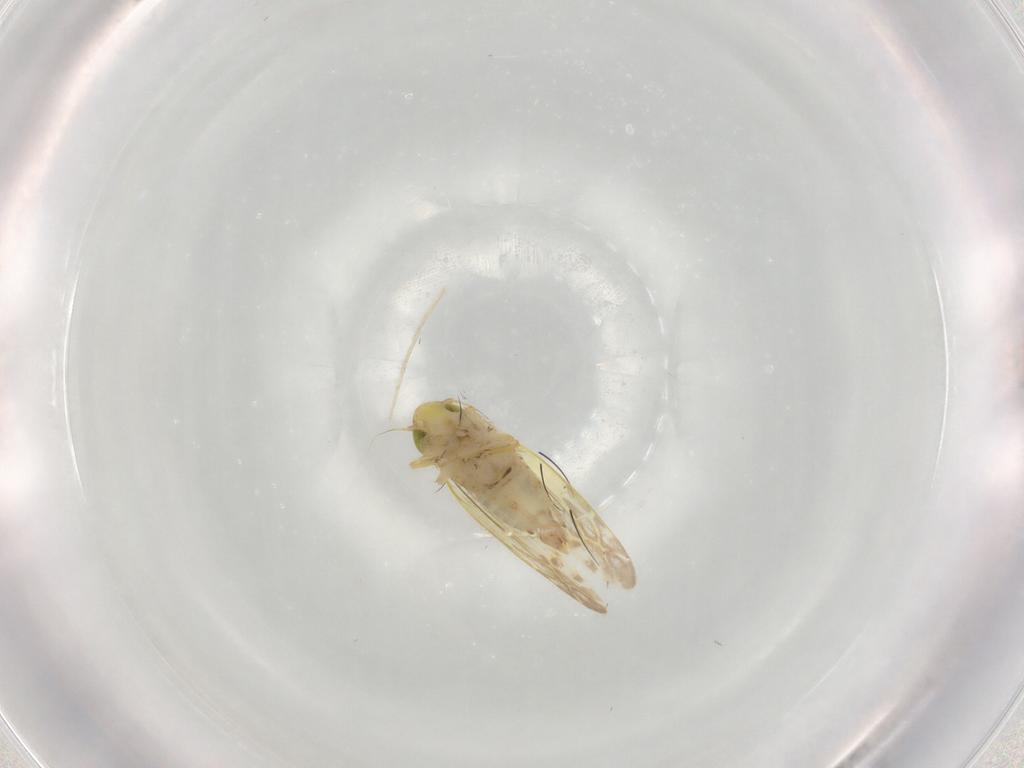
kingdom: Animalia
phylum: Arthropoda
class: Insecta
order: Hemiptera
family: Cicadellidae
